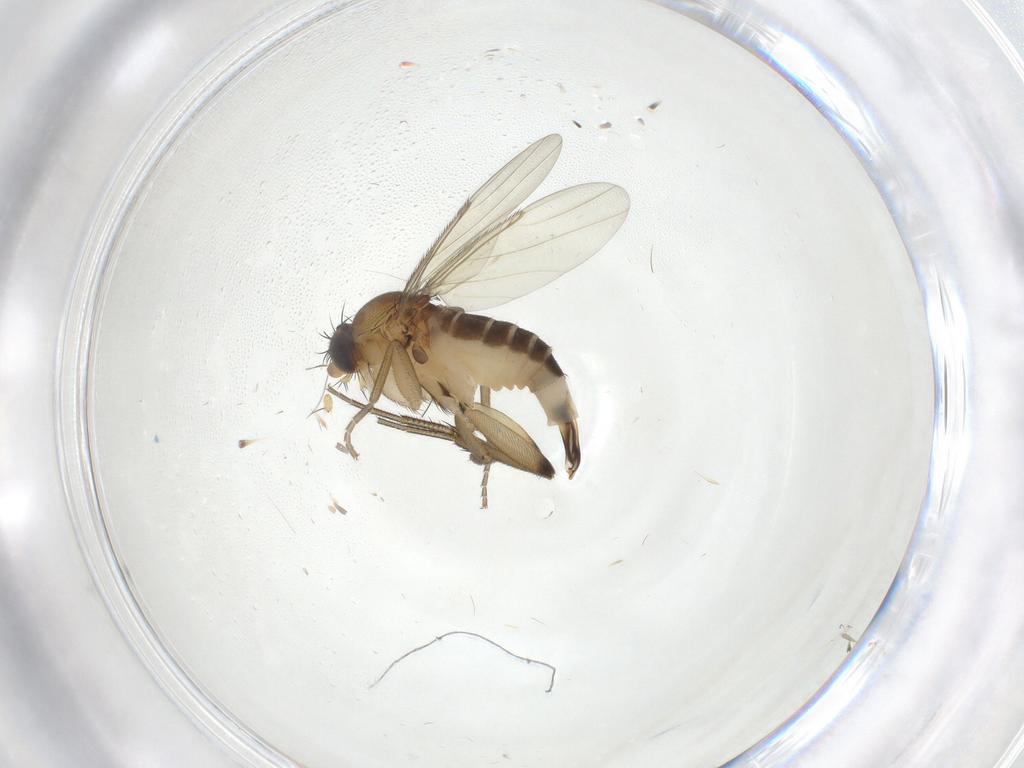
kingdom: Animalia
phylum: Arthropoda
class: Insecta
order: Diptera
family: Phoridae
